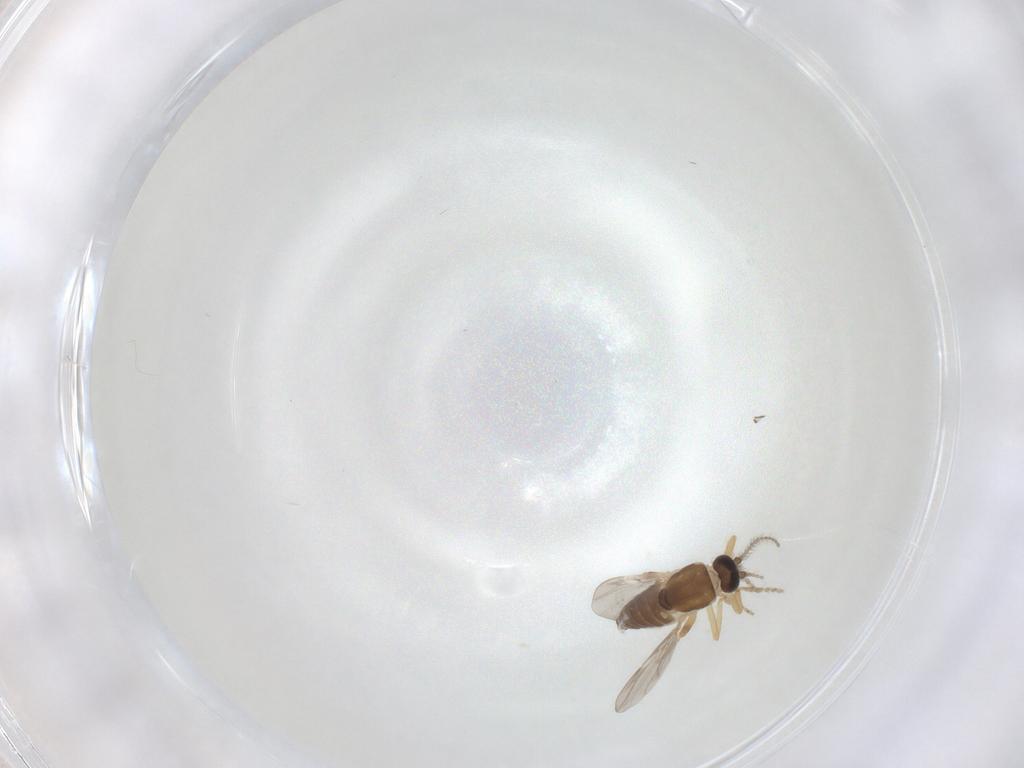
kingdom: Animalia
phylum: Arthropoda
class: Insecta
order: Diptera
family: Ceratopogonidae
